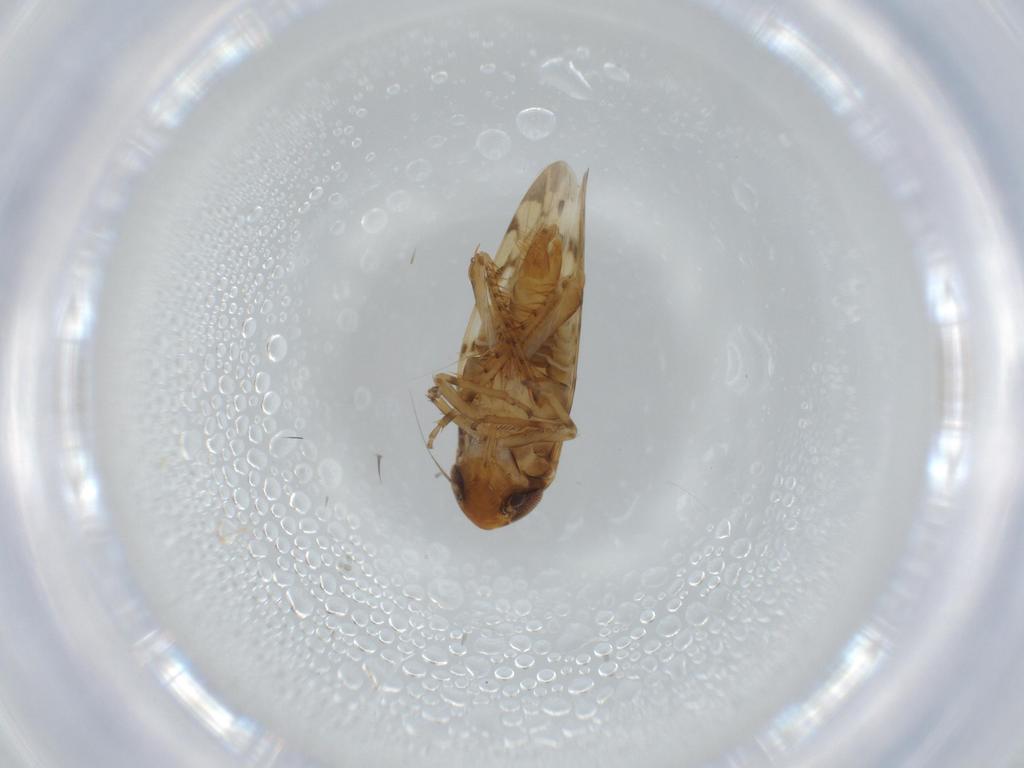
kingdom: Animalia
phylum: Arthropoda
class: Insecta
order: Hemiptera
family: Cicadellidae
